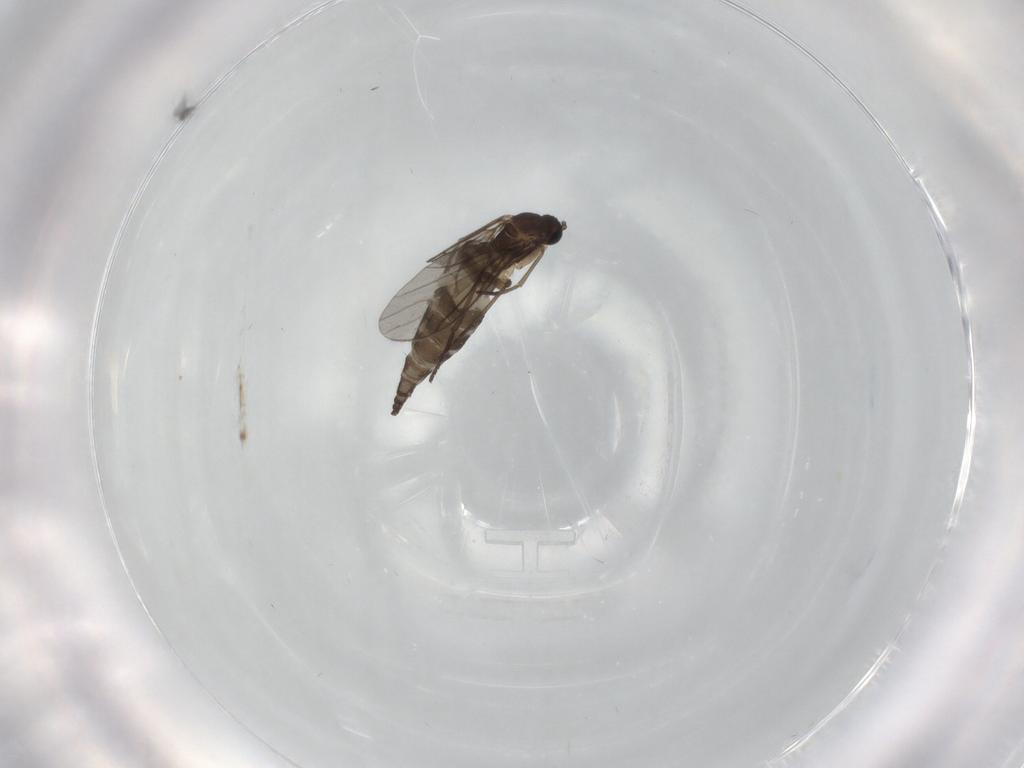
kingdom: Animalia
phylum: Arthropoda
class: Insecta
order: Diptera
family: Sciaridae
